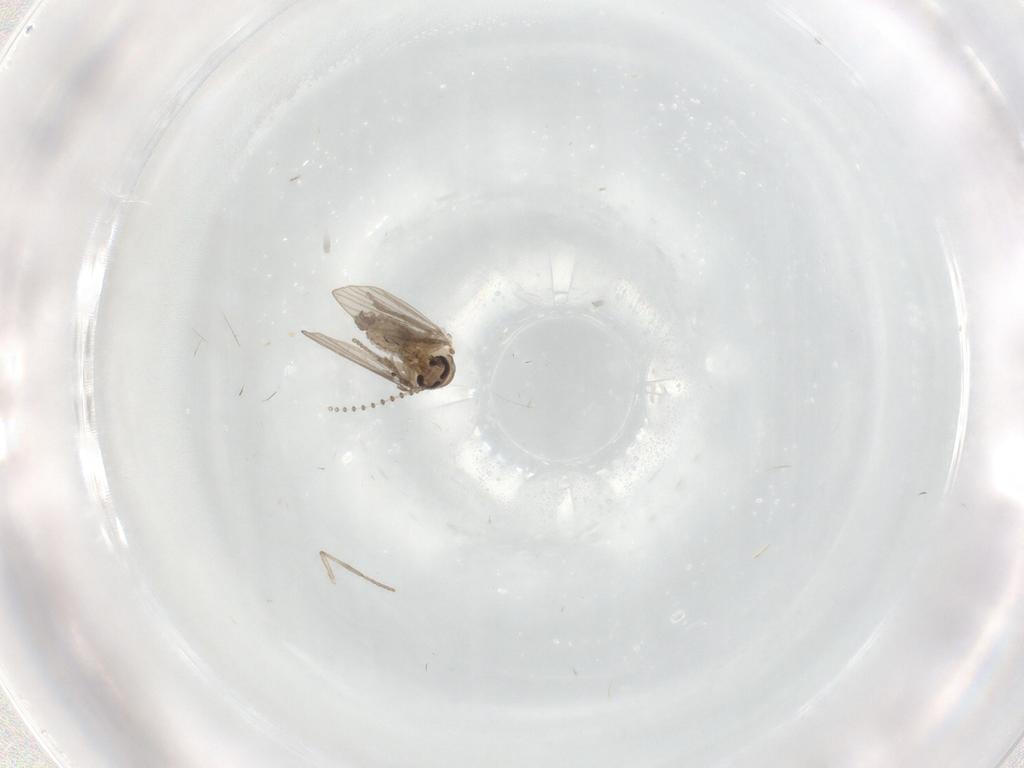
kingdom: Animalia
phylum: Arthropoda
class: Insecta
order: Diptera
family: Psychodidae
